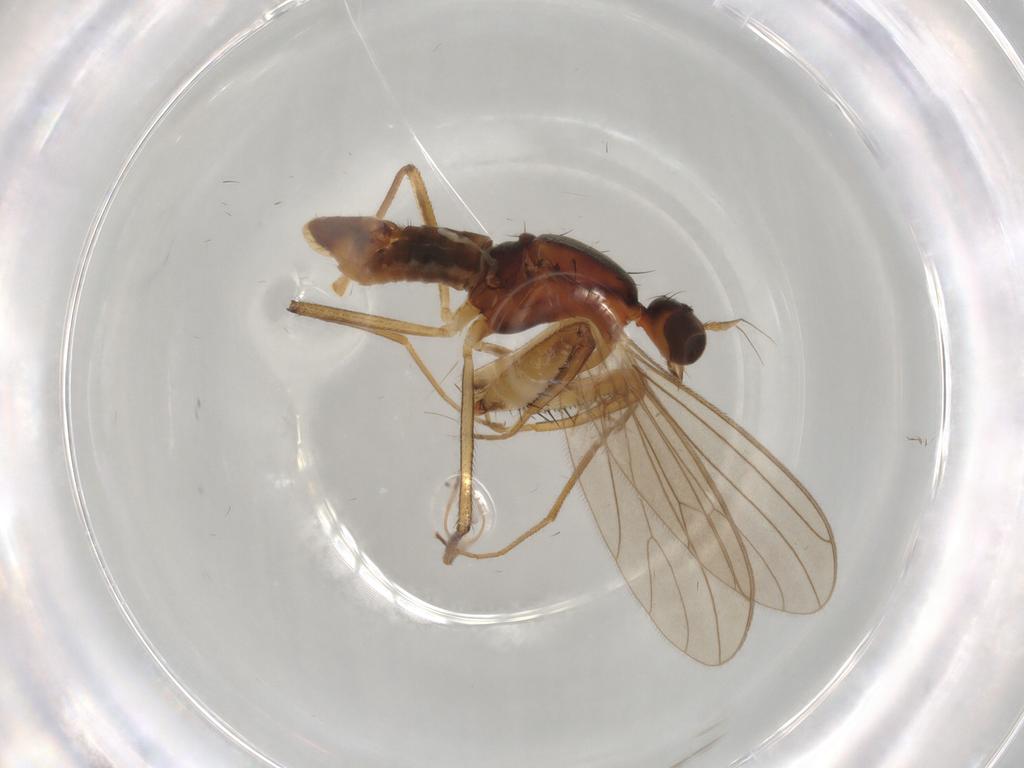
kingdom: Animalia
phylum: Arthropoda
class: Insecta
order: Diptera
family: Empididae
